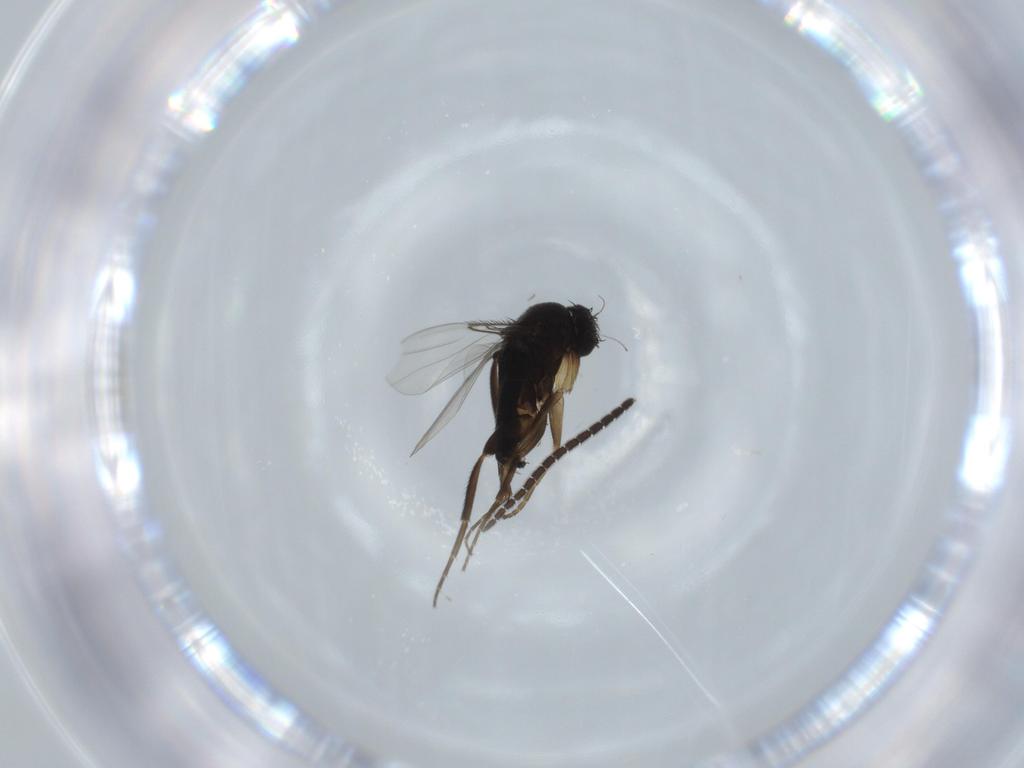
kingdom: Animalia
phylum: Arthropoda
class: Insecta
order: Diptera
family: Phoridae
